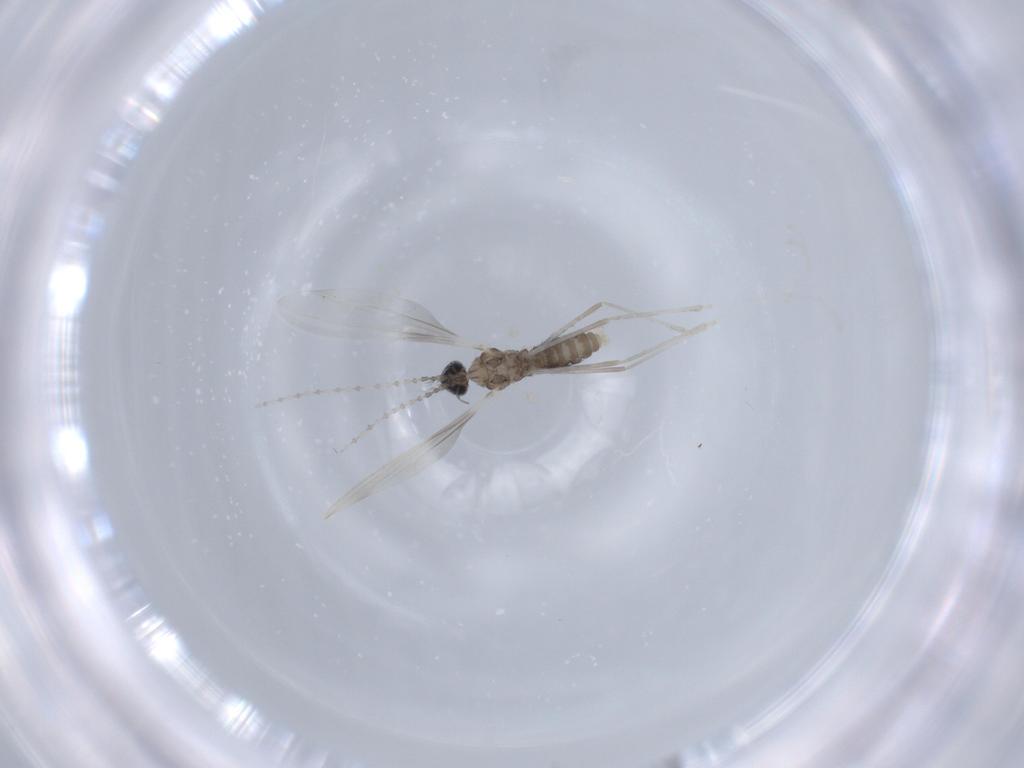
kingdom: Animalia
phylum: Arthropoda
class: Insecta
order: Diptera
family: Cecidomyiidae
